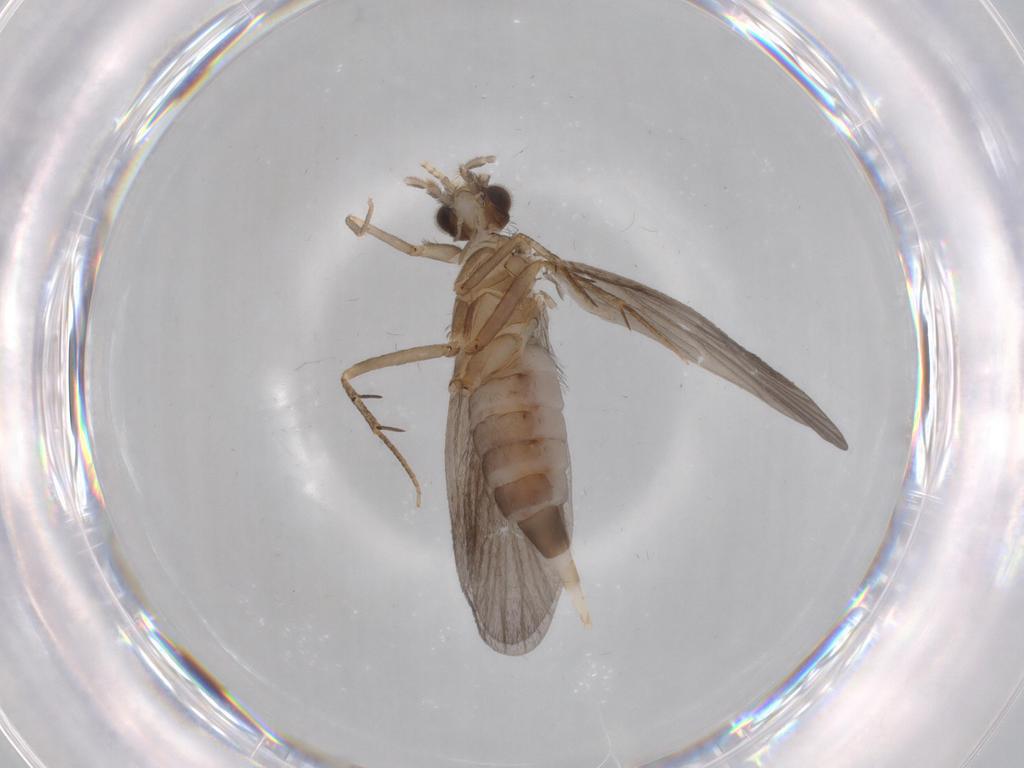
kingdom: Animalia
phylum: Arthropoda
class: Insecta
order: Trichoptera
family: Philopotamidae
